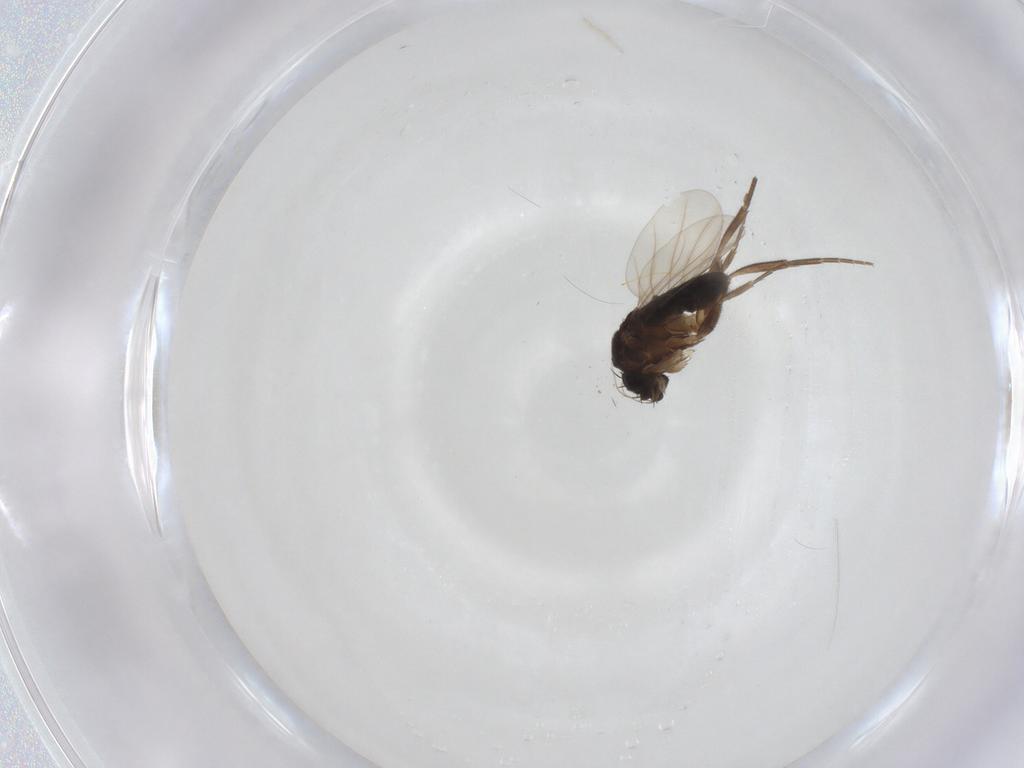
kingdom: Animalia
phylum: Arthropoda
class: Insecta
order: Diptera
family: Phoridae
